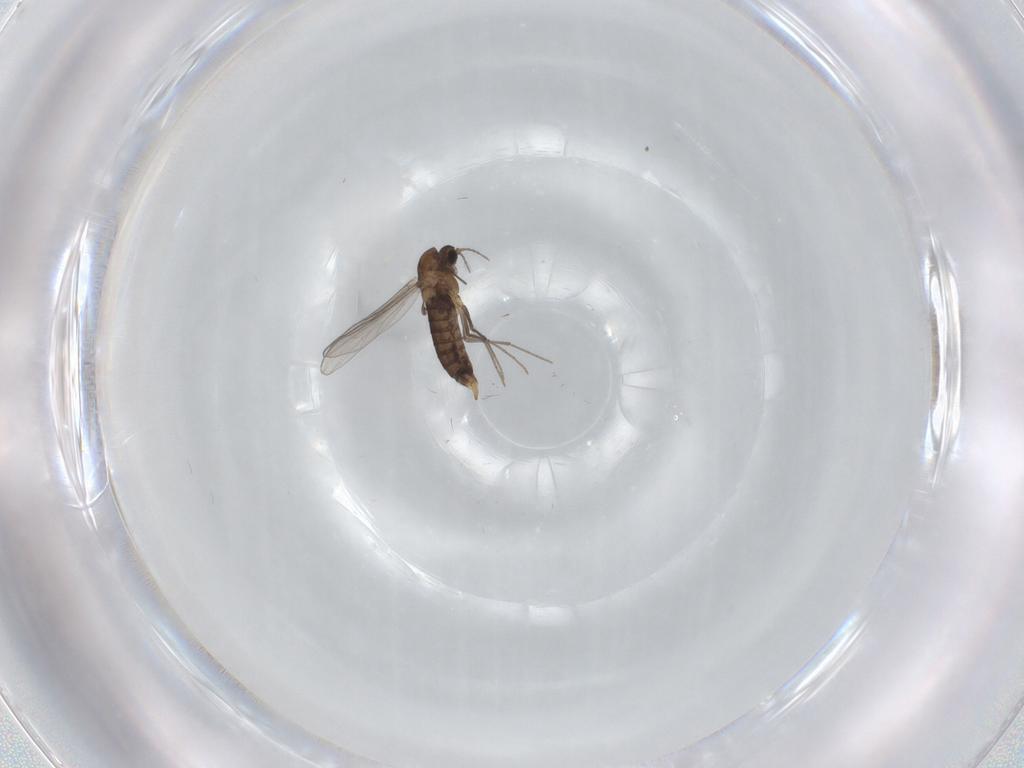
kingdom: Animalia
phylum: Arthropoda
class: Insecta
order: Diptera
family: Chironomidae
